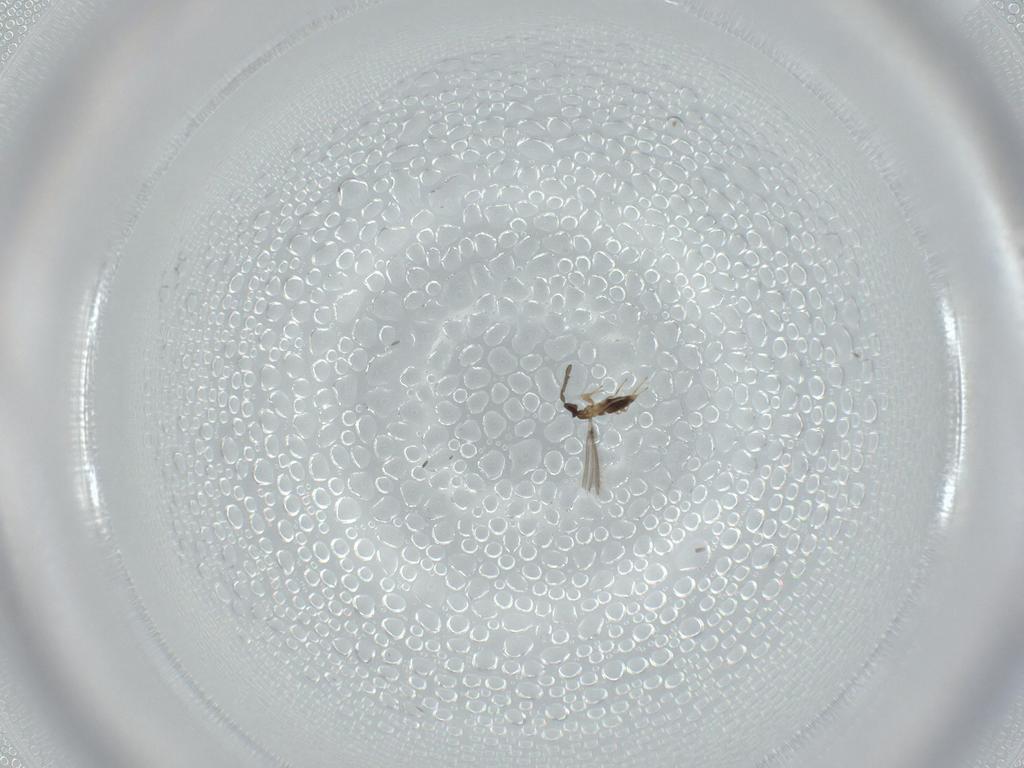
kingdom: Animalia
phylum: Arthropoda
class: Insecta
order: Hymenoptera
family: Mymaridae
